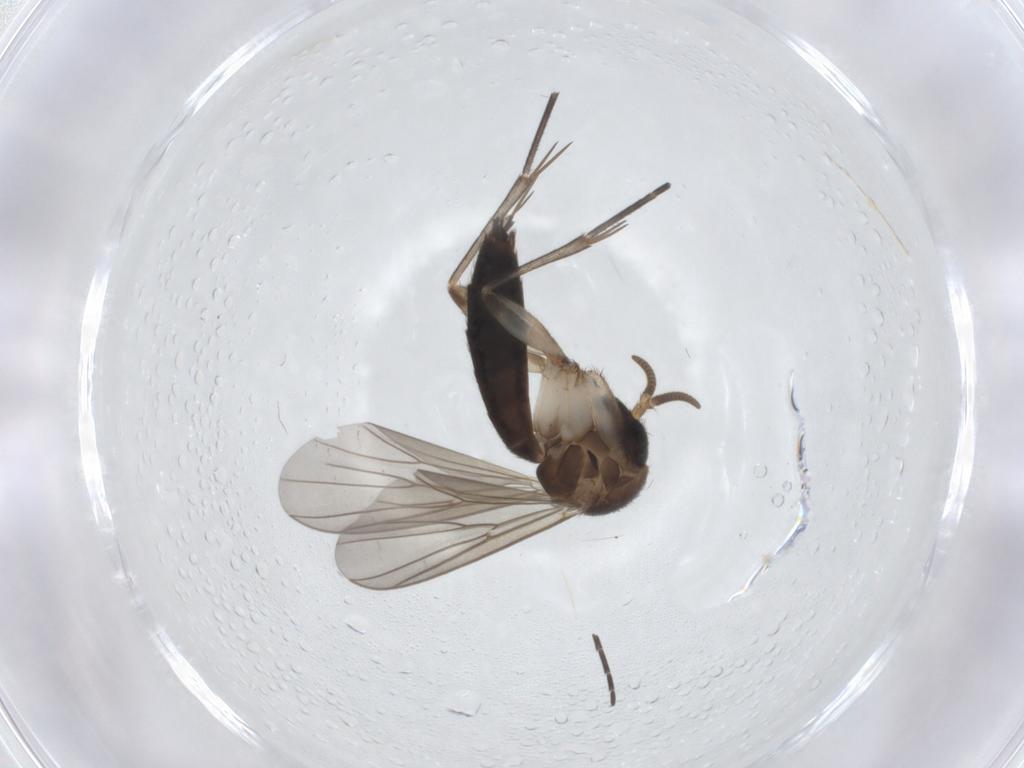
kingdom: Animalia
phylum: Arthropoda
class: Insecta
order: Diptera
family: Mycetophilidae
